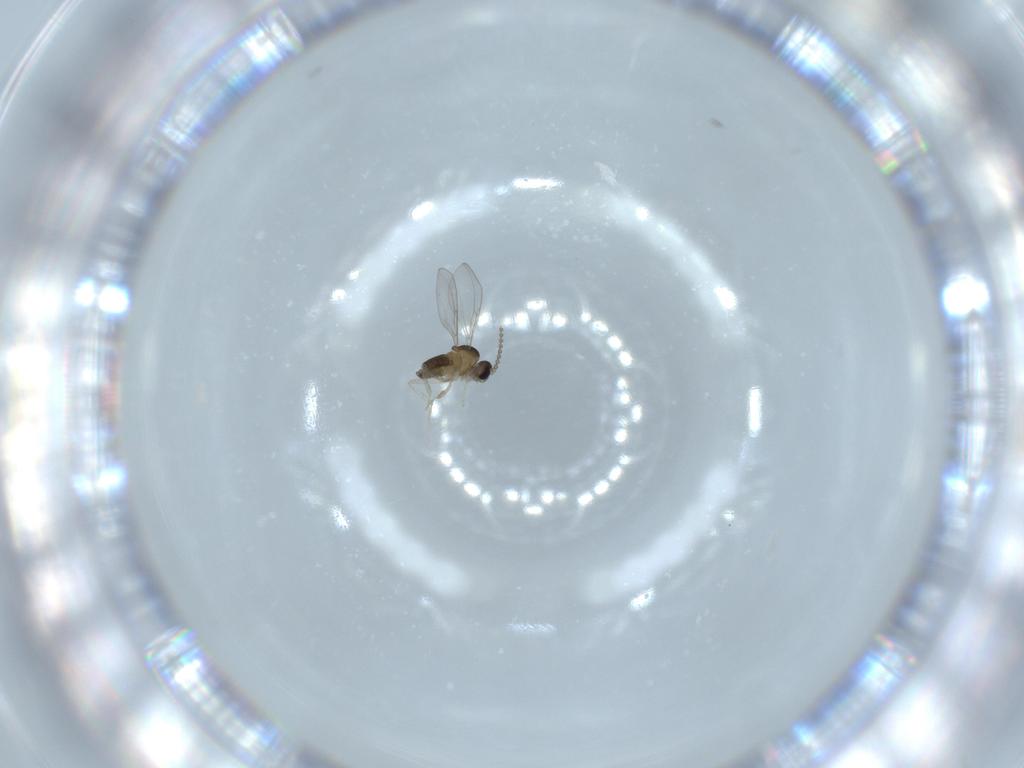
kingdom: Animalia
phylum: Arthropoda
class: Insecta
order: Diptera
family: Cecidomyiidae
